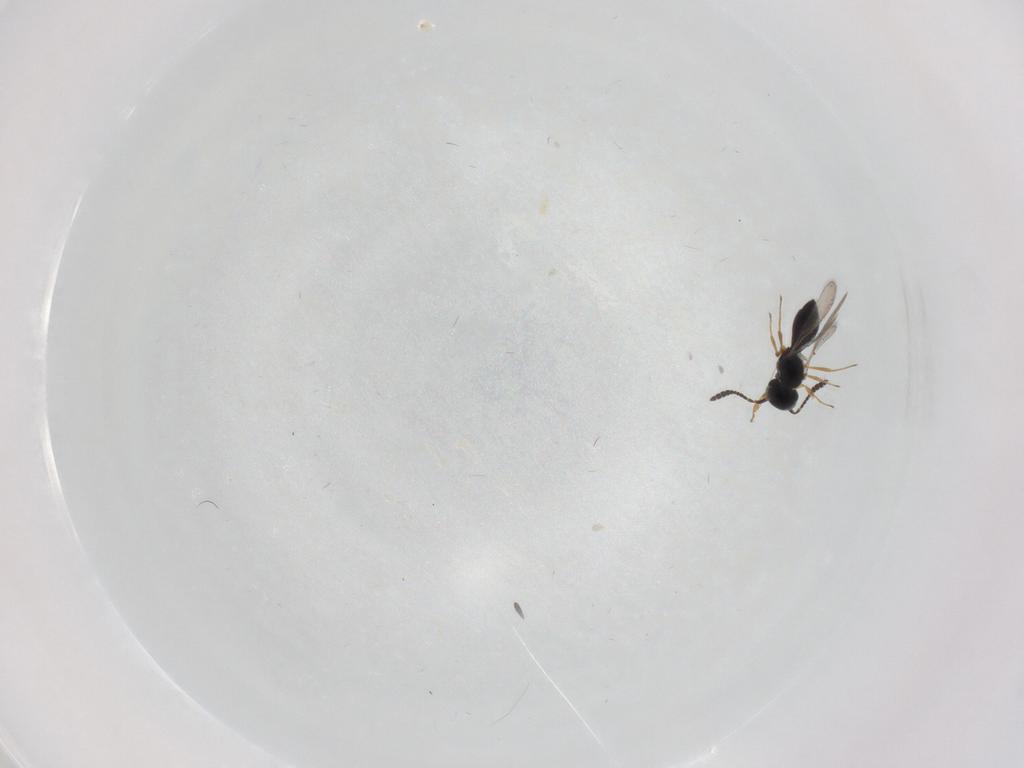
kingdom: Animalia
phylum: Arthropoda
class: Insecta
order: Hymenoptera
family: Scelionidae
